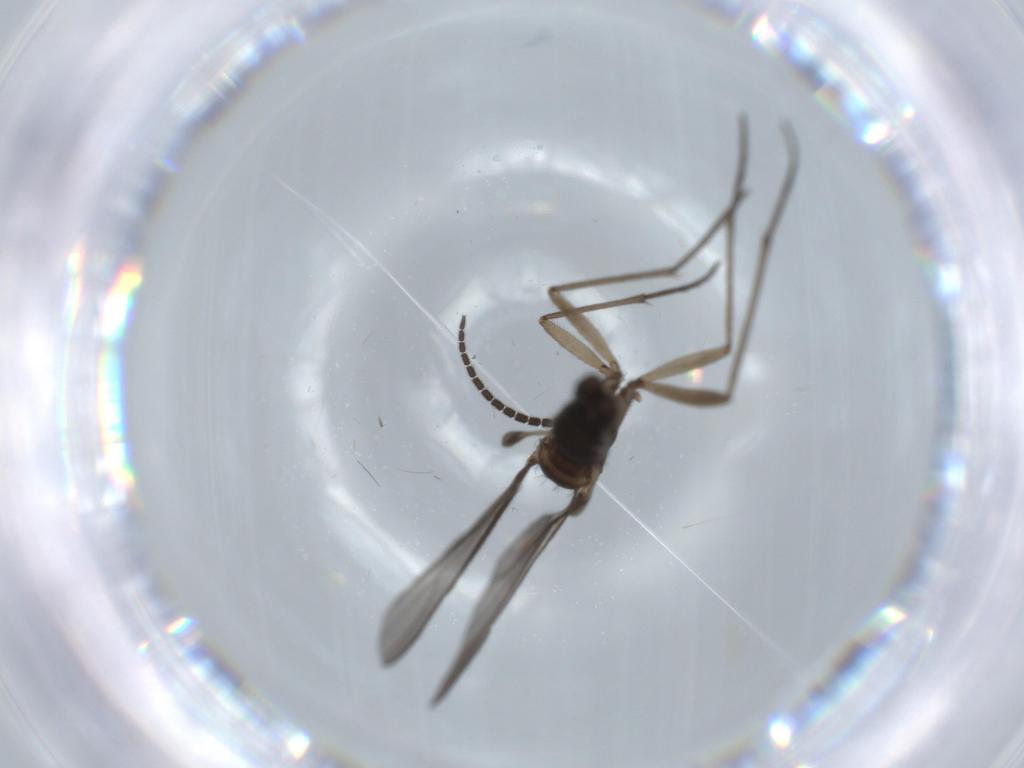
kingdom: Animalia
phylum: Arthropoda
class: Insecta
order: Diptera
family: Sciaridae
